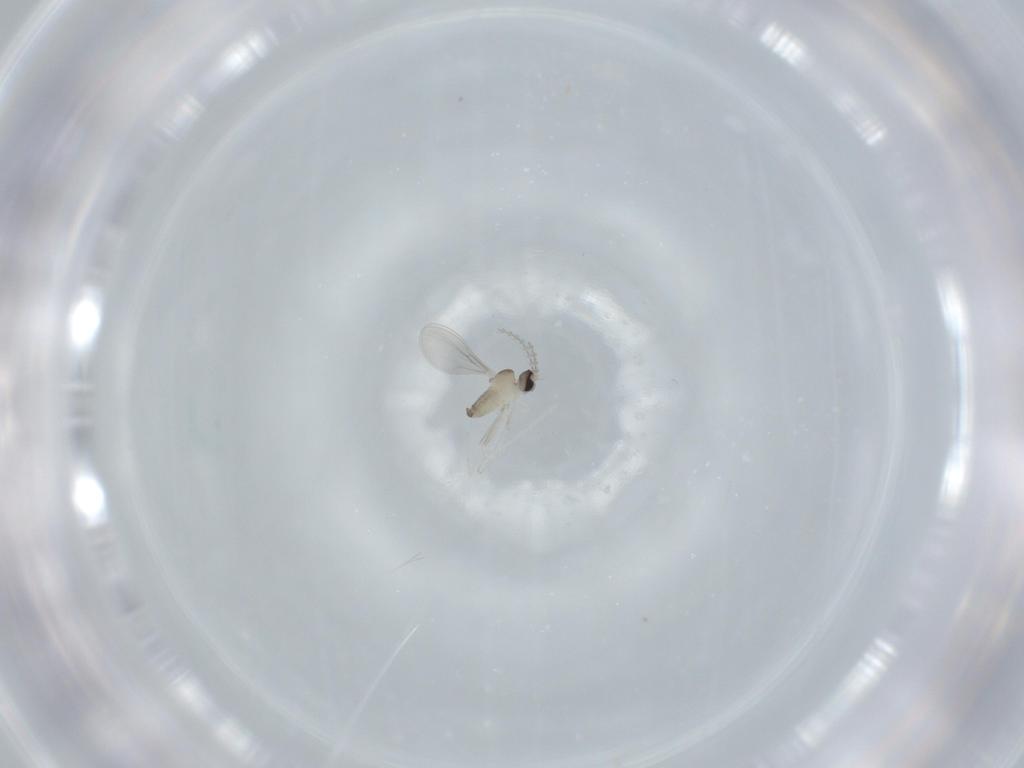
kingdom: Animalia
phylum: Arthropoda
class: Insecta
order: Diptera
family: Cecidomyiidae
